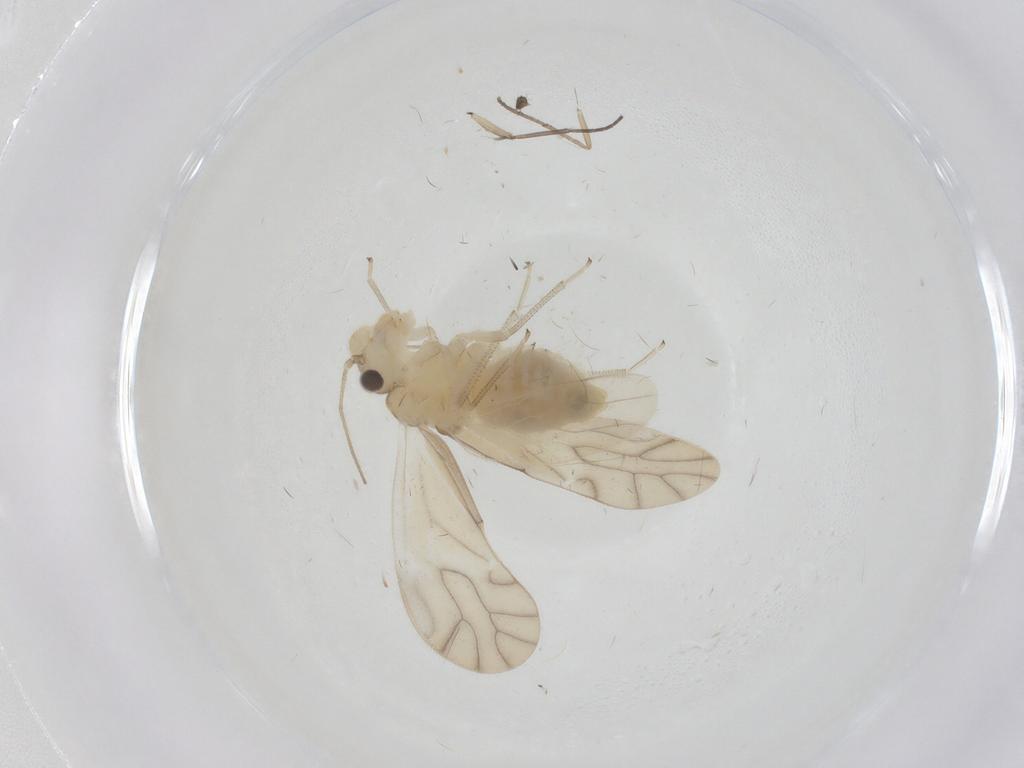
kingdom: Animalia
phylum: Arthropoda
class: Insecta
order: Psocodea
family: Caeciliusidae
